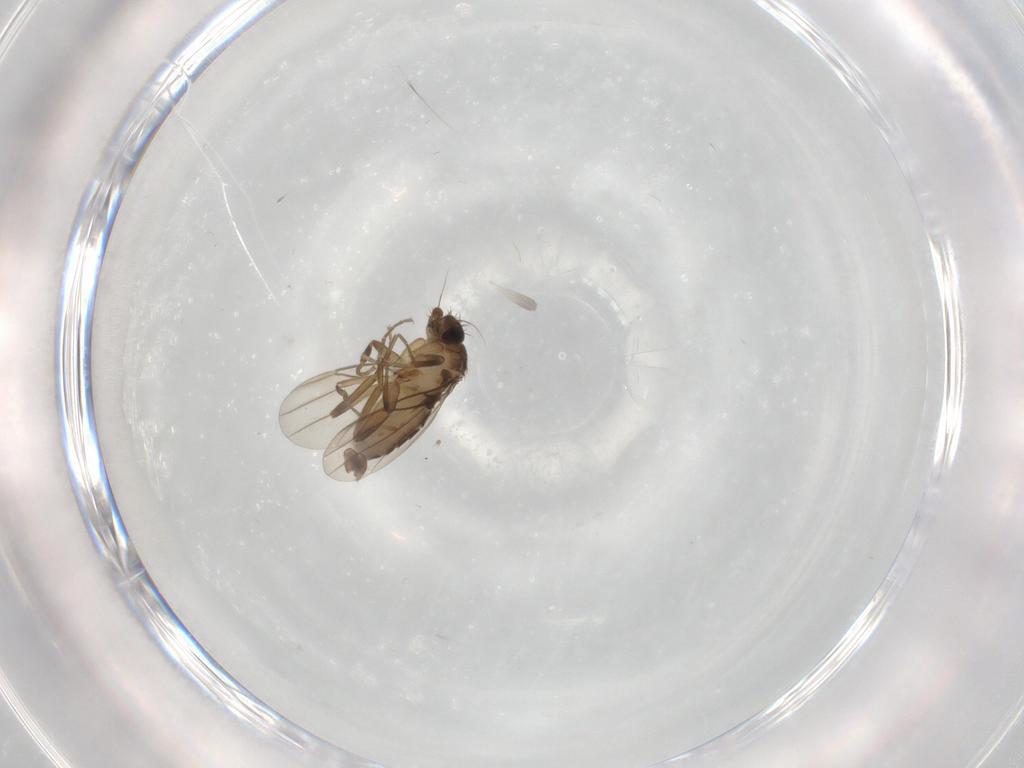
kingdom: Animalia
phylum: Arthropoda
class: Insecta
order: Diptera
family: Phoridae
